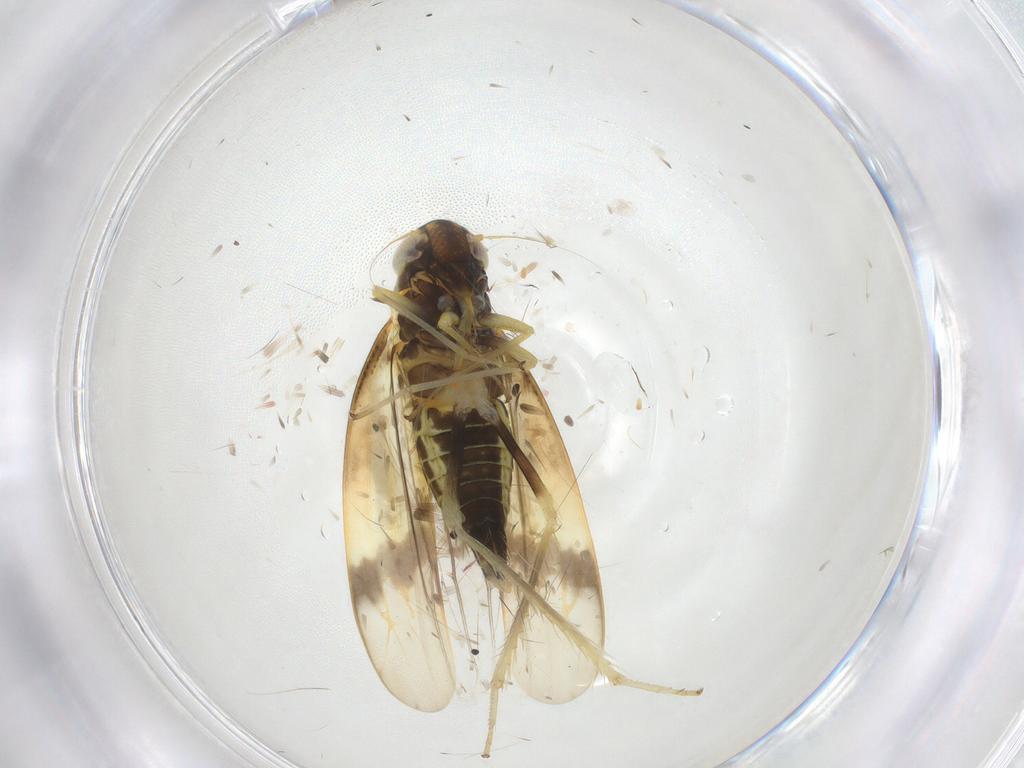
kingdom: Animalia
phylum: Arthropoda
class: Insecta
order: Hemiptera
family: Cicadellidae
